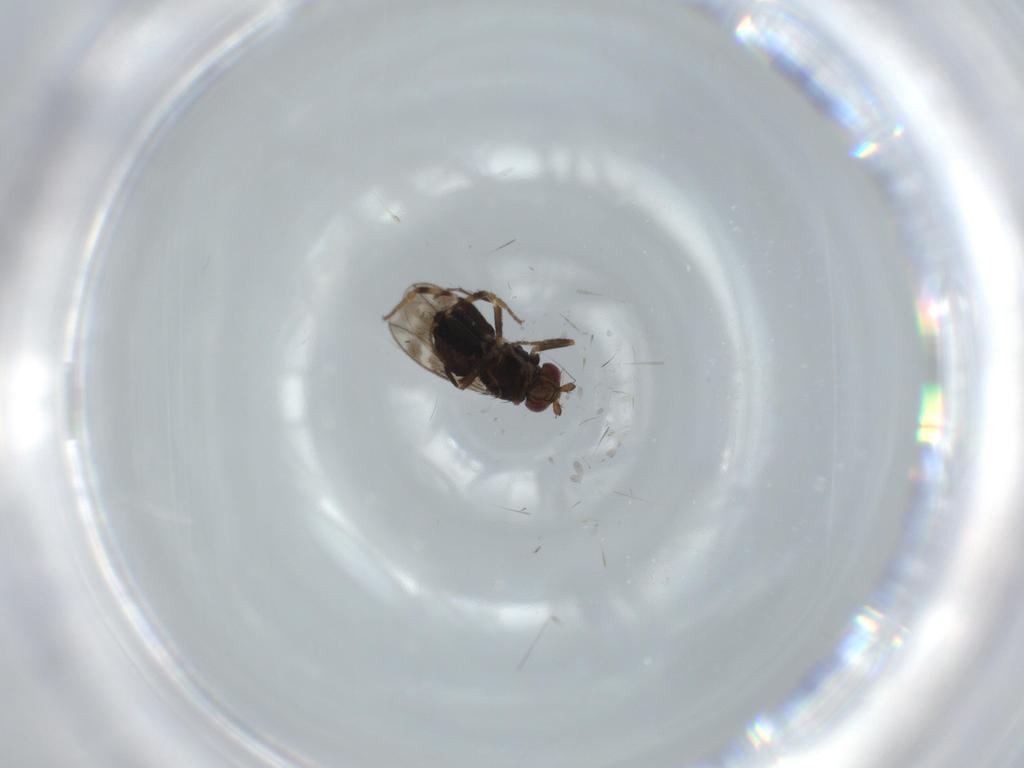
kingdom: Animalia
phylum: Arthropoda
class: Insecta
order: Diptera
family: Sphaeroceridae
